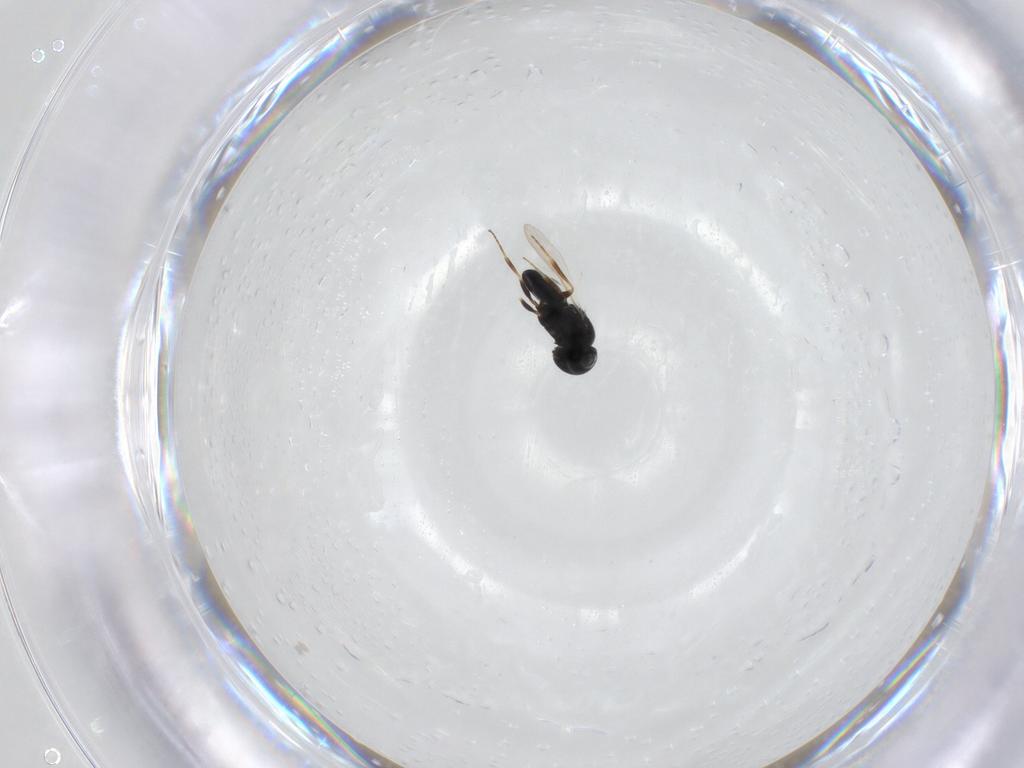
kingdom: Animalia
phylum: Arthropoda
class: Insecta
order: Hymenoptera
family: Scelionidae
